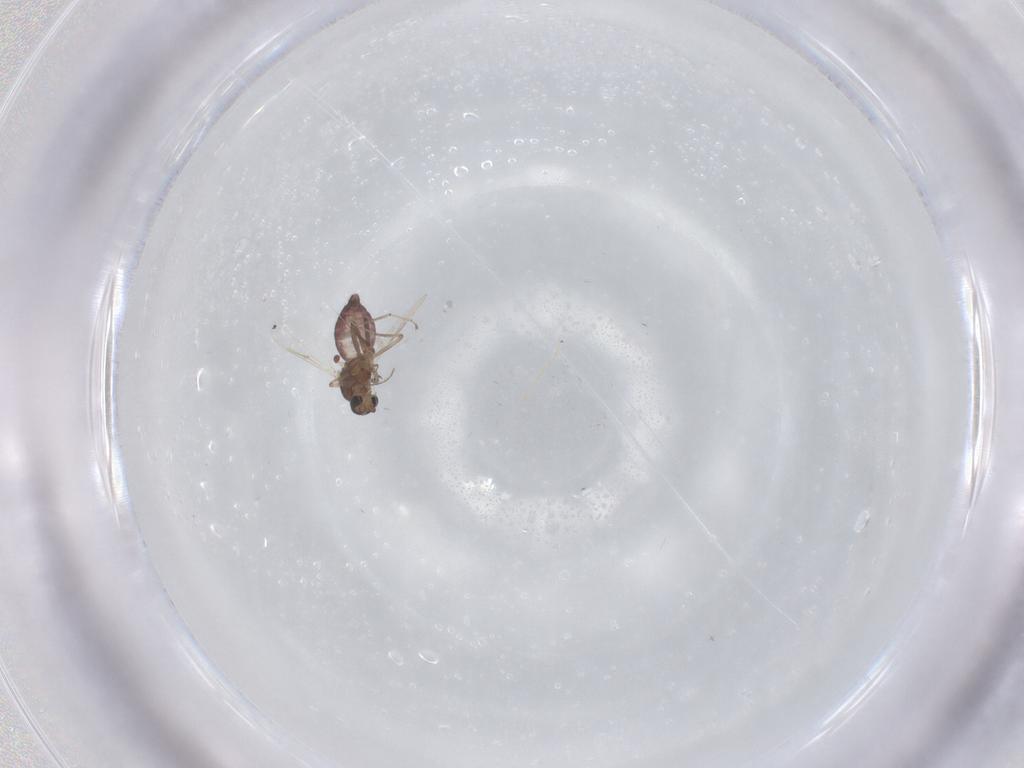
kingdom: Animalia
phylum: Arthropoda
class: Insecta
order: Diptera
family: Ceratopogonidae
